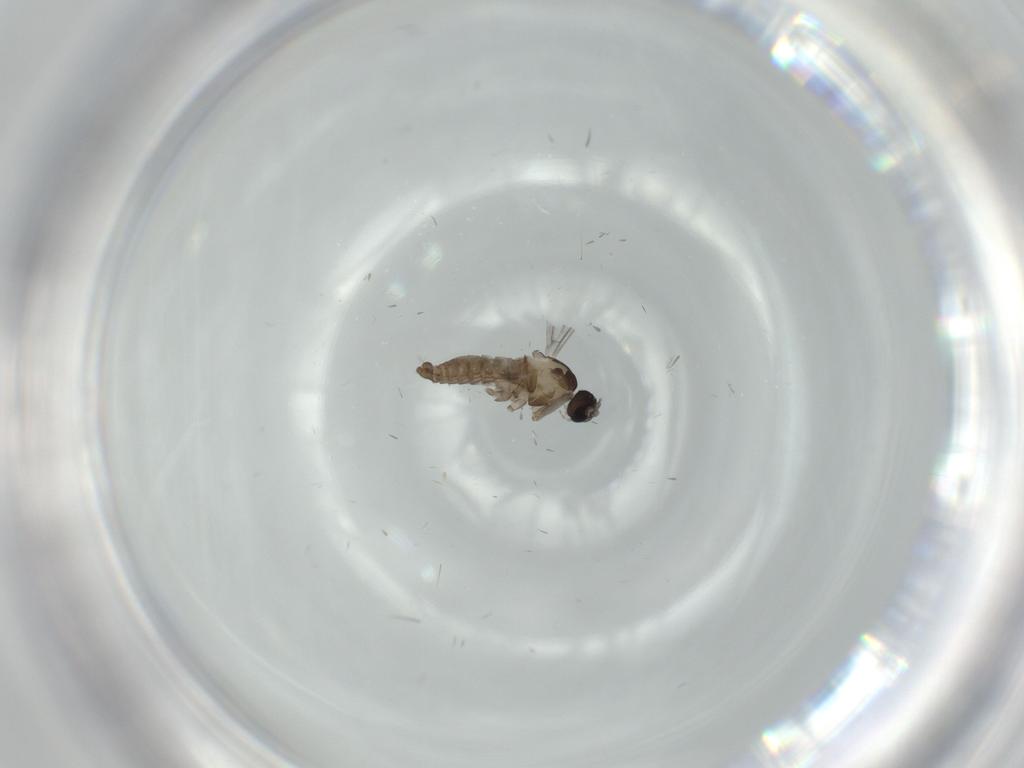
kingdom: Animalia
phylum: Arthropoda
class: Insecta
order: Diptera
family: Cecidomyiidae
